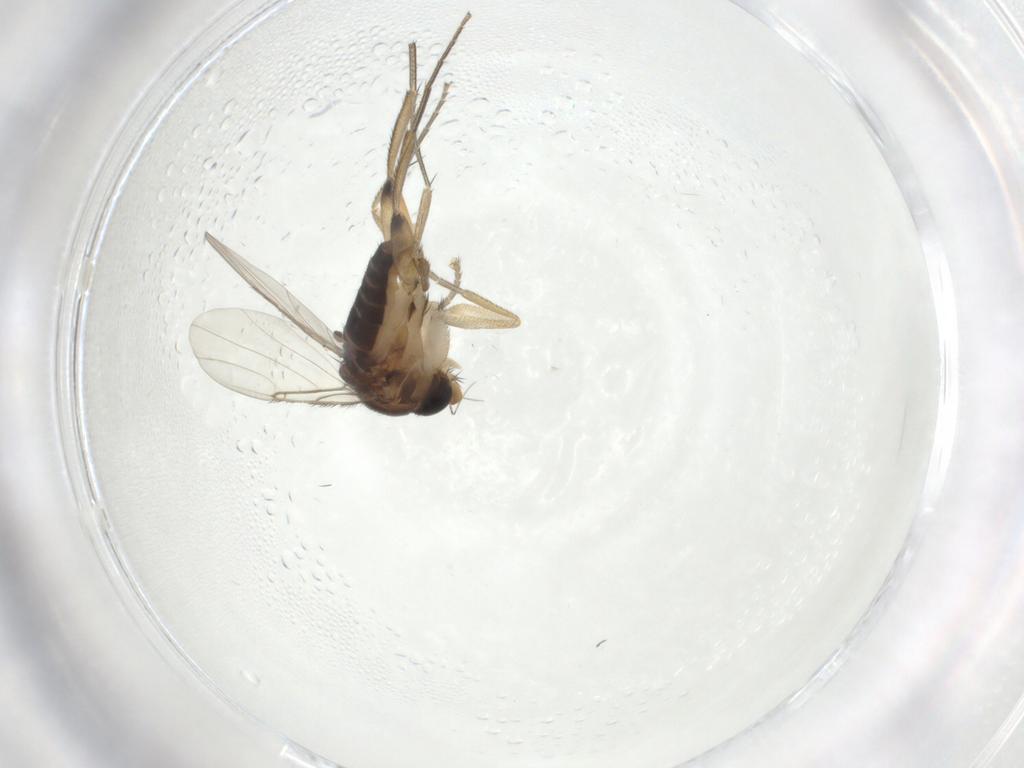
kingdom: Animalia
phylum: Arthropoda
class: Insecta
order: Diptera
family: Phoridae
